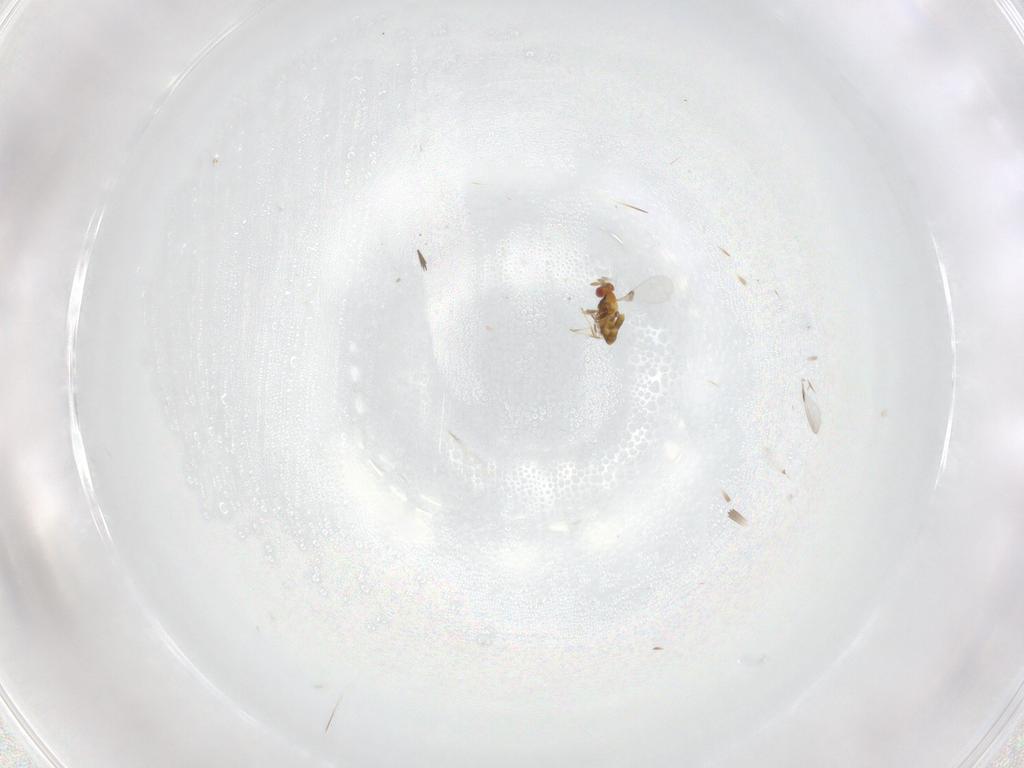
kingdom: Animalia
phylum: Arthropoda
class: Insecta
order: Hymenoptera
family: Trichogrammatidae
